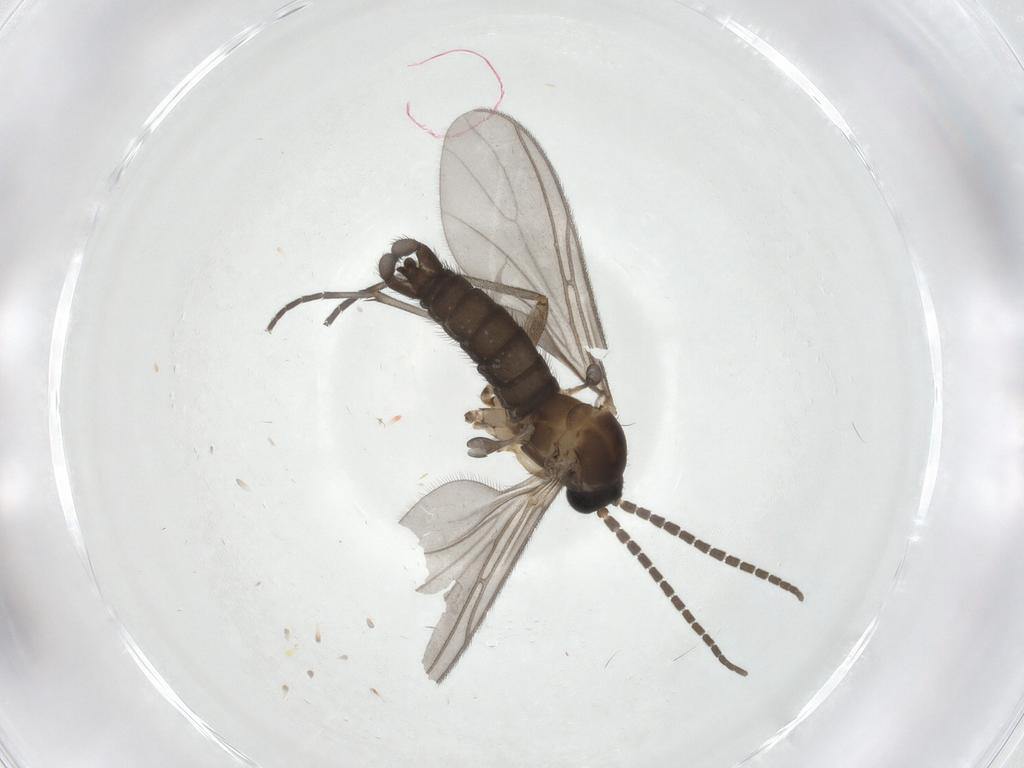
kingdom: Animalia
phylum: Arthropoda
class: Insecta
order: Diptera
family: Sciaridae
